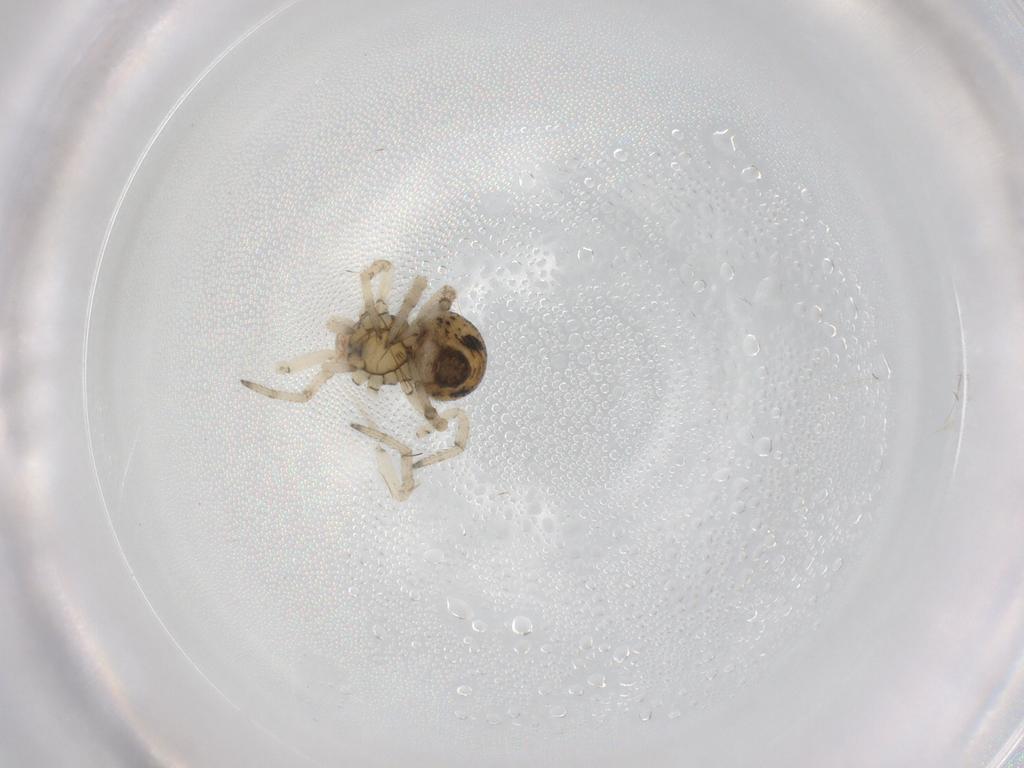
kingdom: Animalia
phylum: Arthropoda
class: Arachnida
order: Araneae
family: Theridiidae
